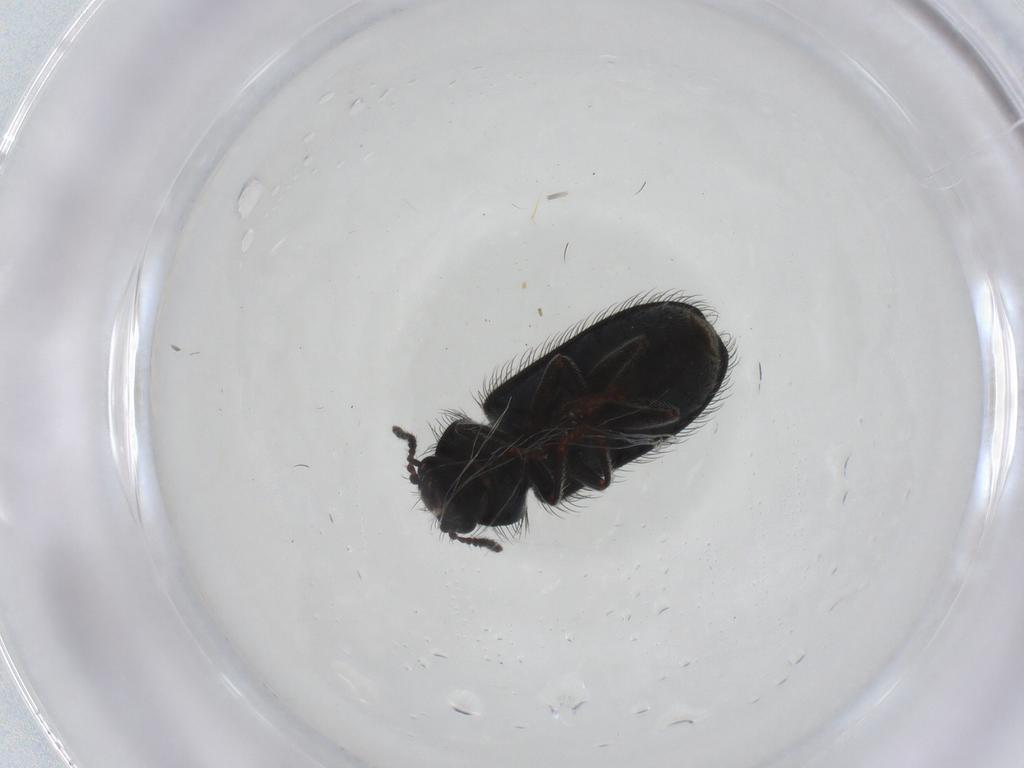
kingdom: Animalia
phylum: Arthropoda
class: Insecta
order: Coleoptera
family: Melyridae
